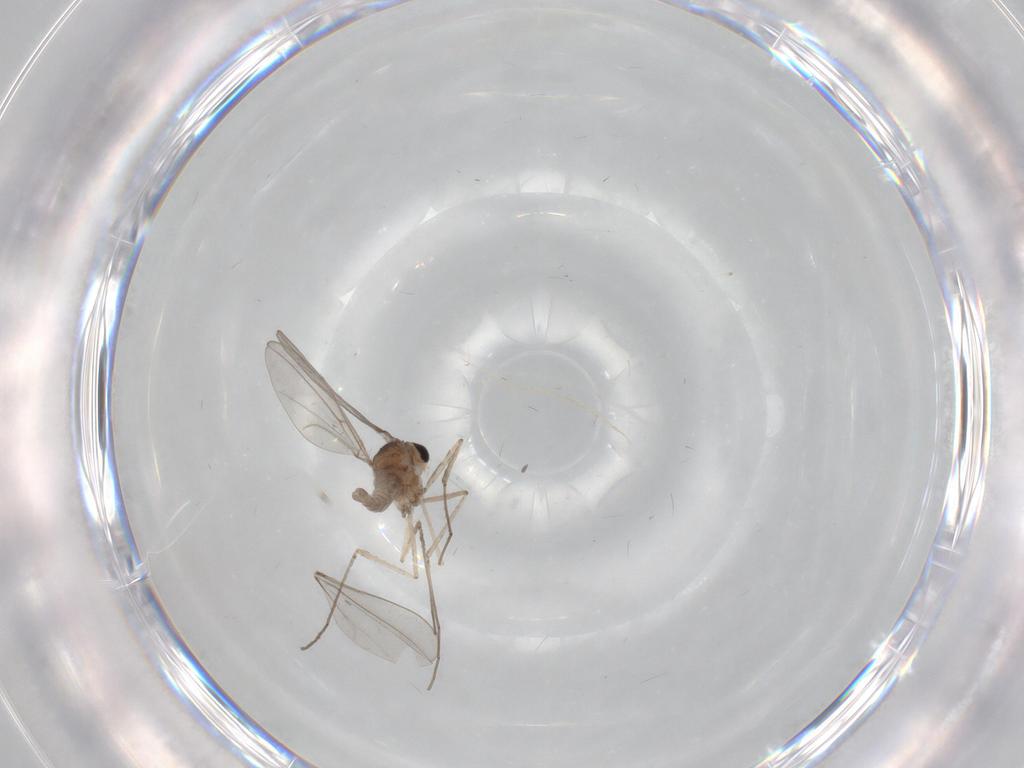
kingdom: Animalia
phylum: Arthropoda
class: Insecta
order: Diptera
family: Cecidomyiidae
